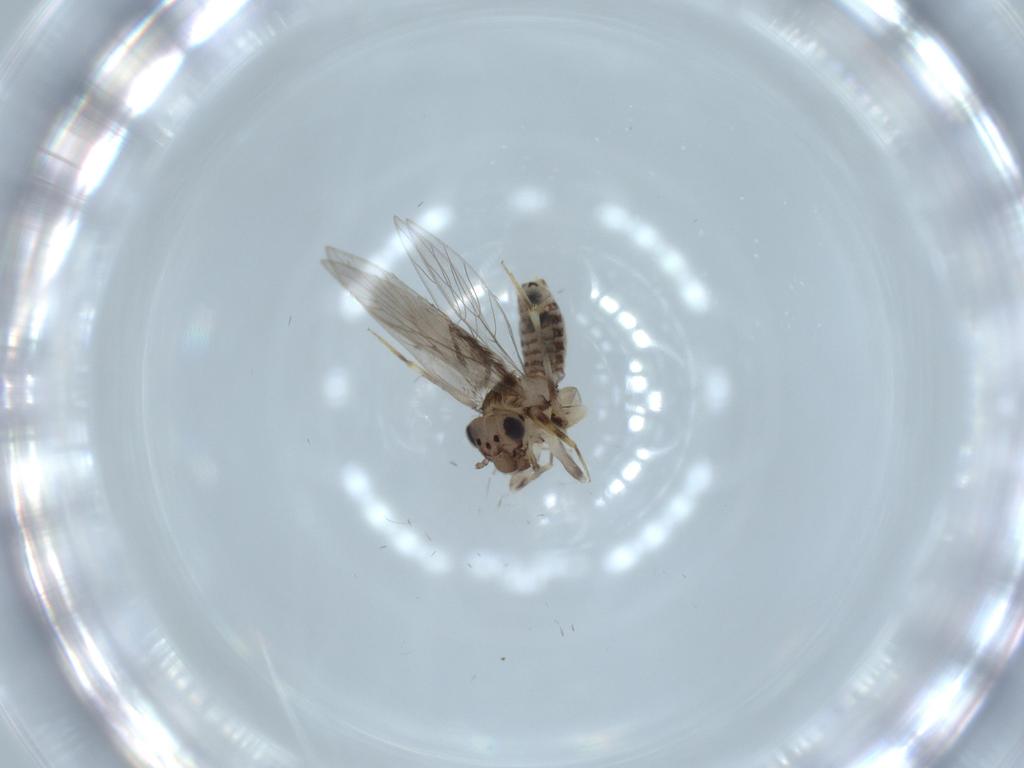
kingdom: Animalia
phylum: Arthropoda
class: Insecta
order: Psocodea
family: Lepidopsocidae
